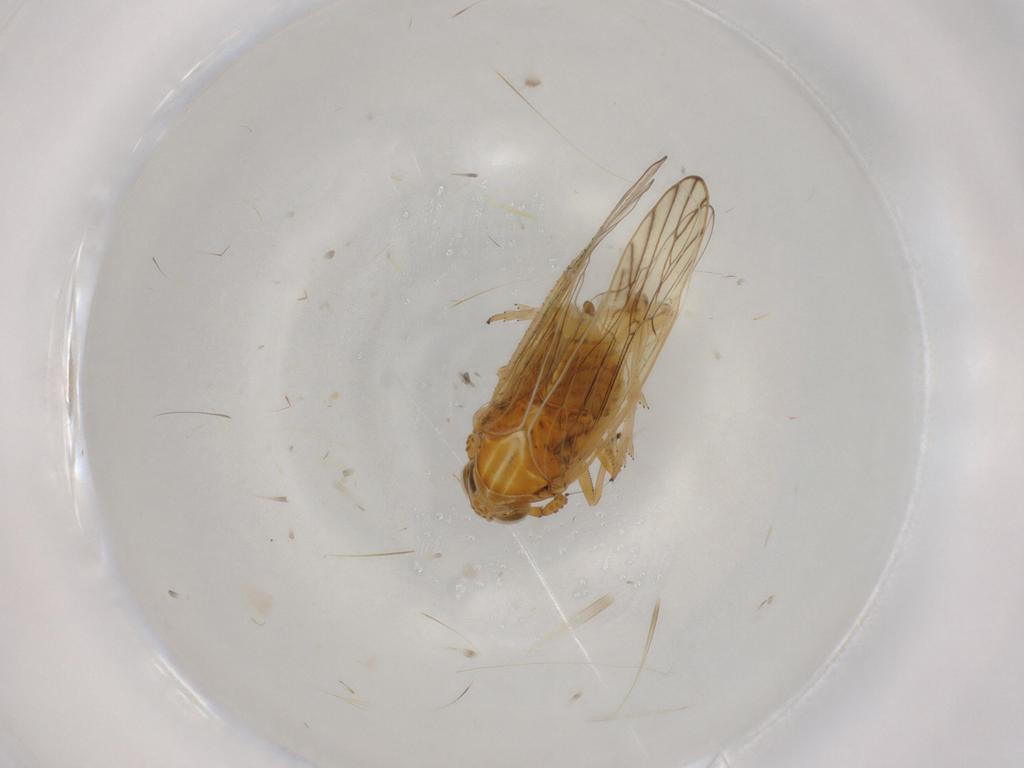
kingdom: Animalia
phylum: Arthropoda
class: Insecta
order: Hemiptera
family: Delphacidae
